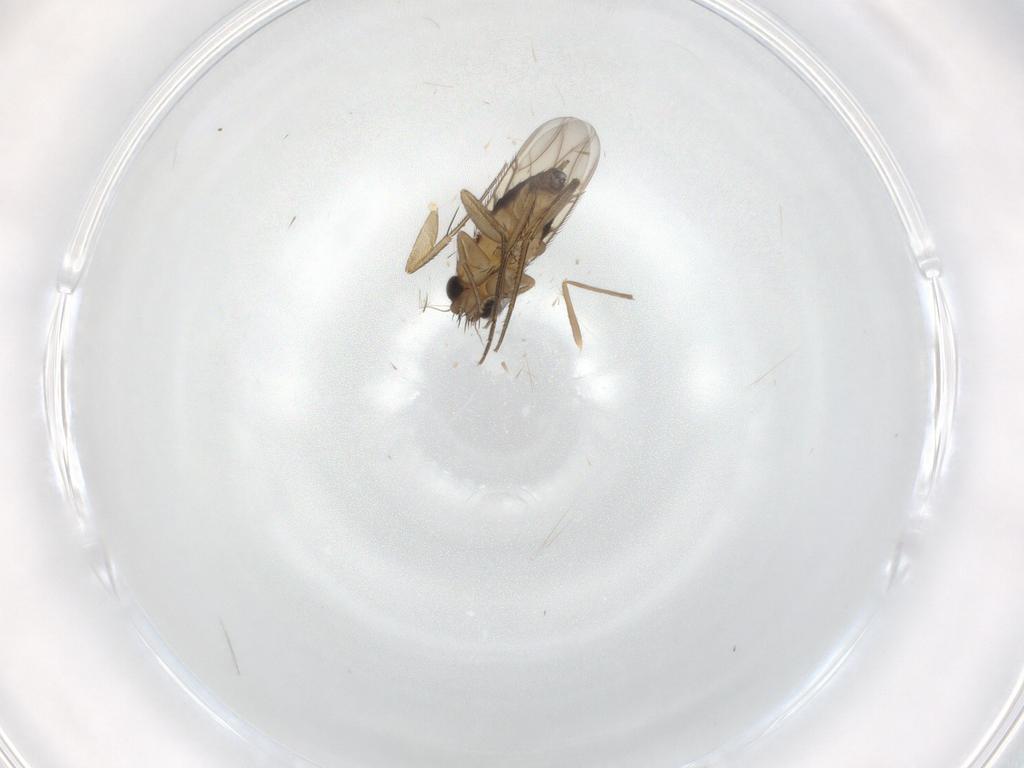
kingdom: Animalia
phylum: Arthropoda
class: Insecta
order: Diptera
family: Phoridae
